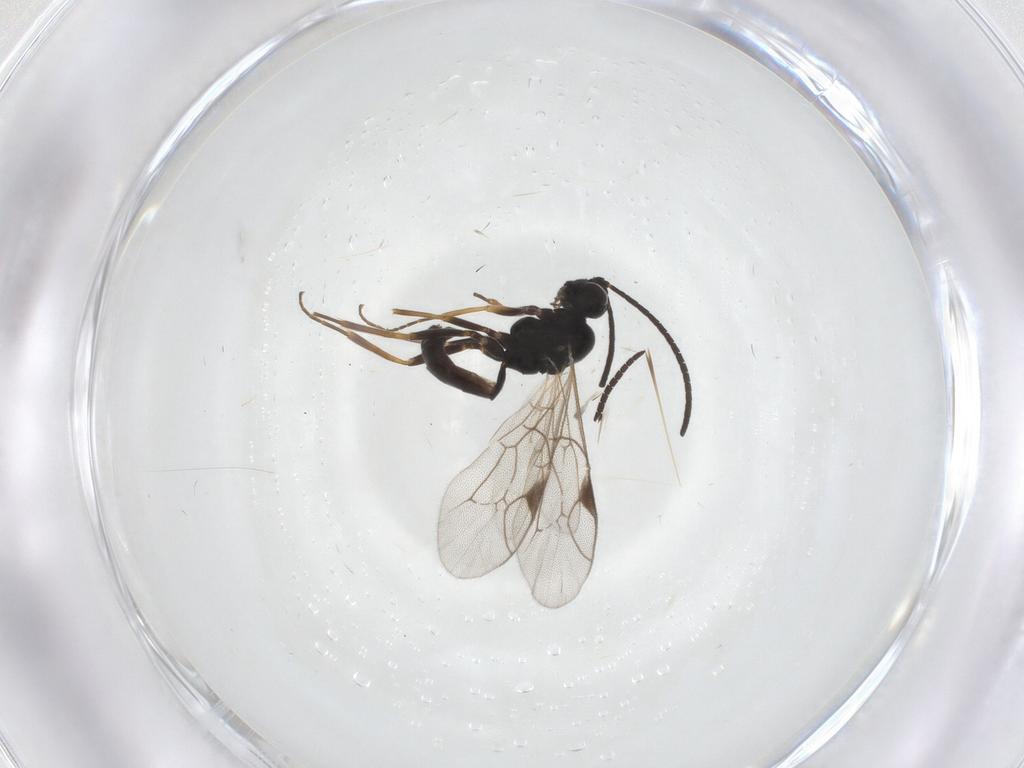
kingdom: Animalia
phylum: Arthropoda
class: Insecta
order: Hymenoptera
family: Ichneumonidae
